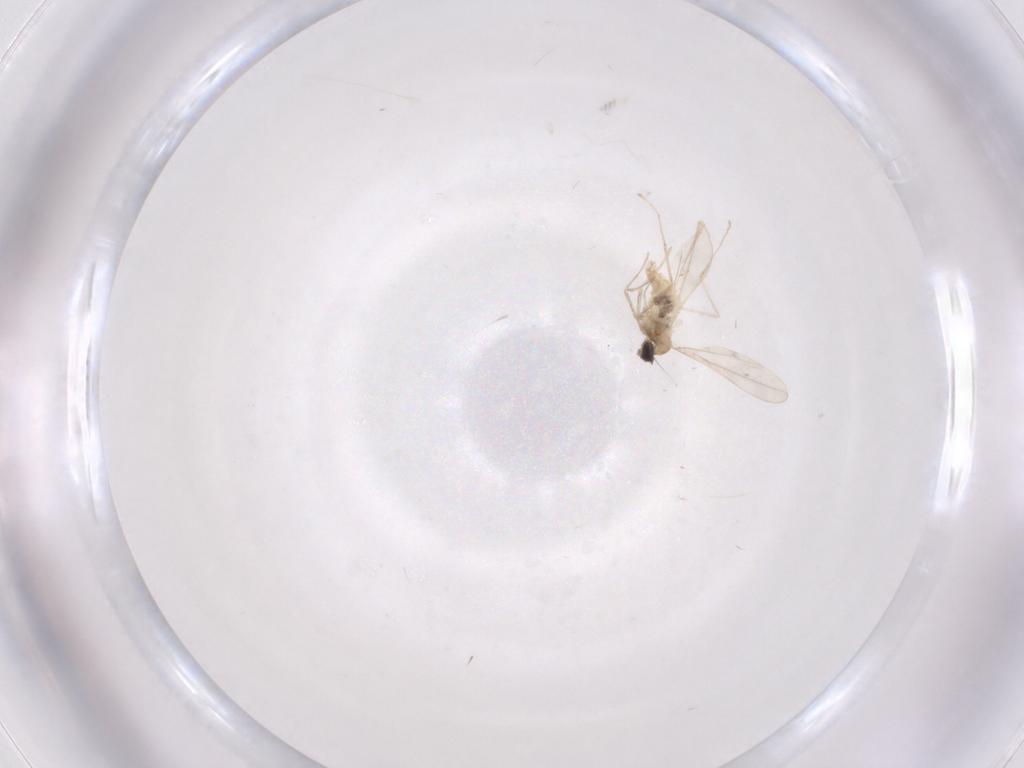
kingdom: Animalia
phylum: Arthropoda
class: Insecta
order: Diptera
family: Cecidomyiidae
